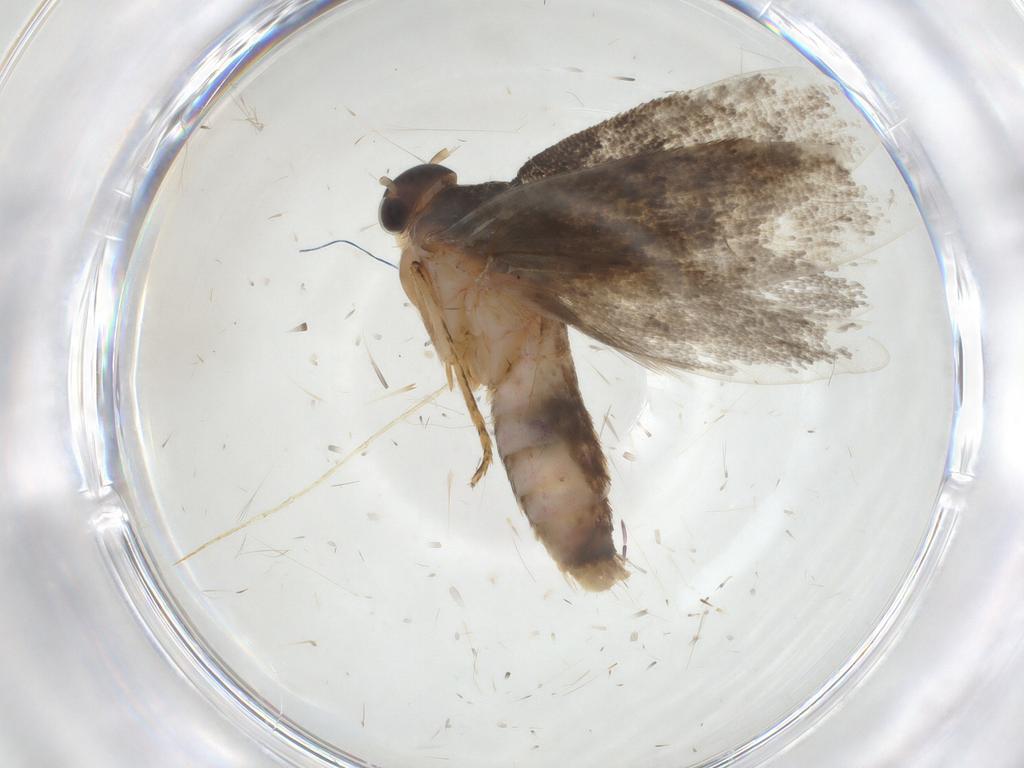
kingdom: Animalia
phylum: Arthropoda
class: Insecta
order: Lepidoptera
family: Oecophoridae
